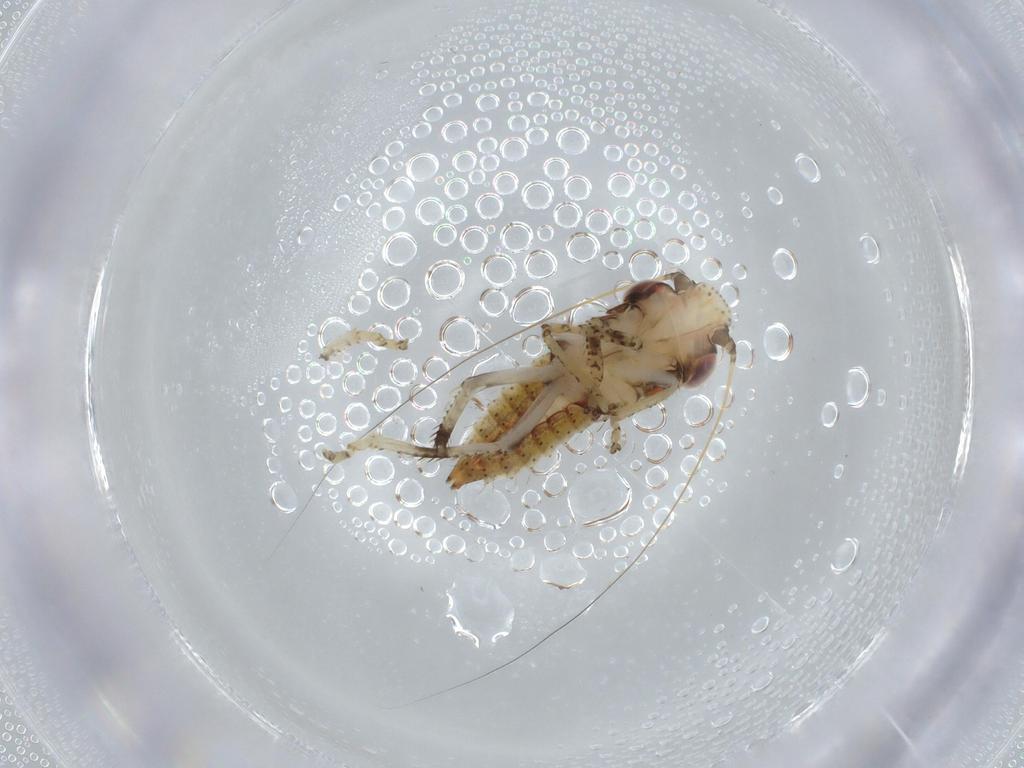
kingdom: Animalia
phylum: Arthropoda
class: Insecta
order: Hemiptera
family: Cicadellidae
